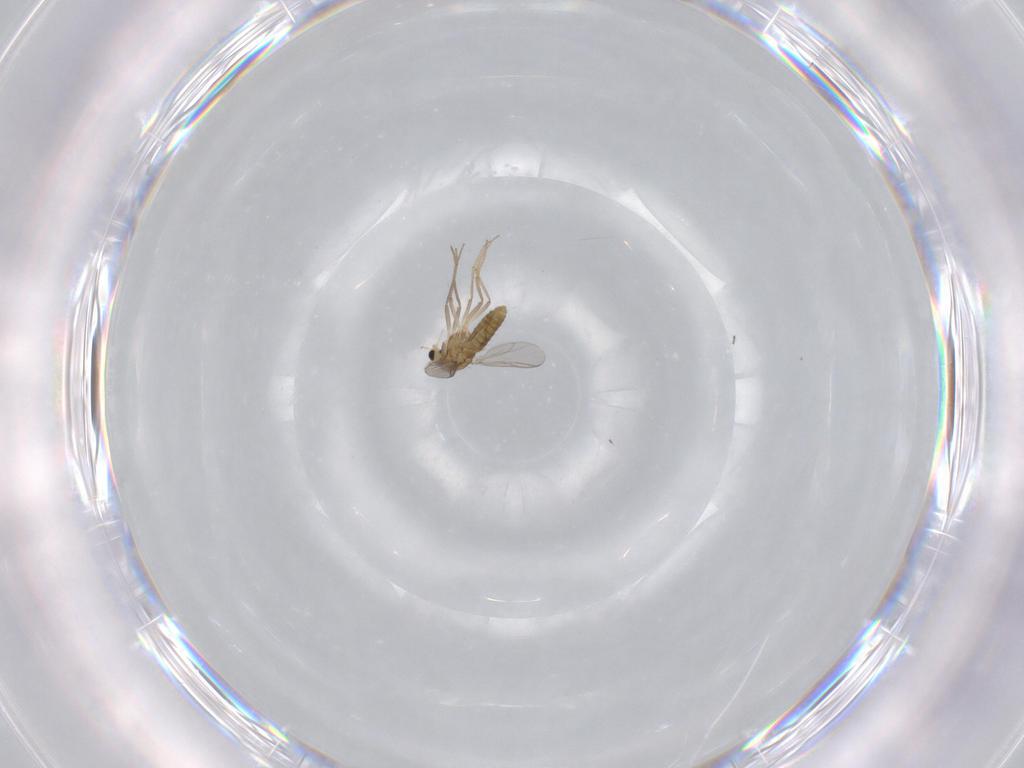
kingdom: Animalia
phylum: Arthropoda
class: Insecta
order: Diptera
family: Chironomidae
